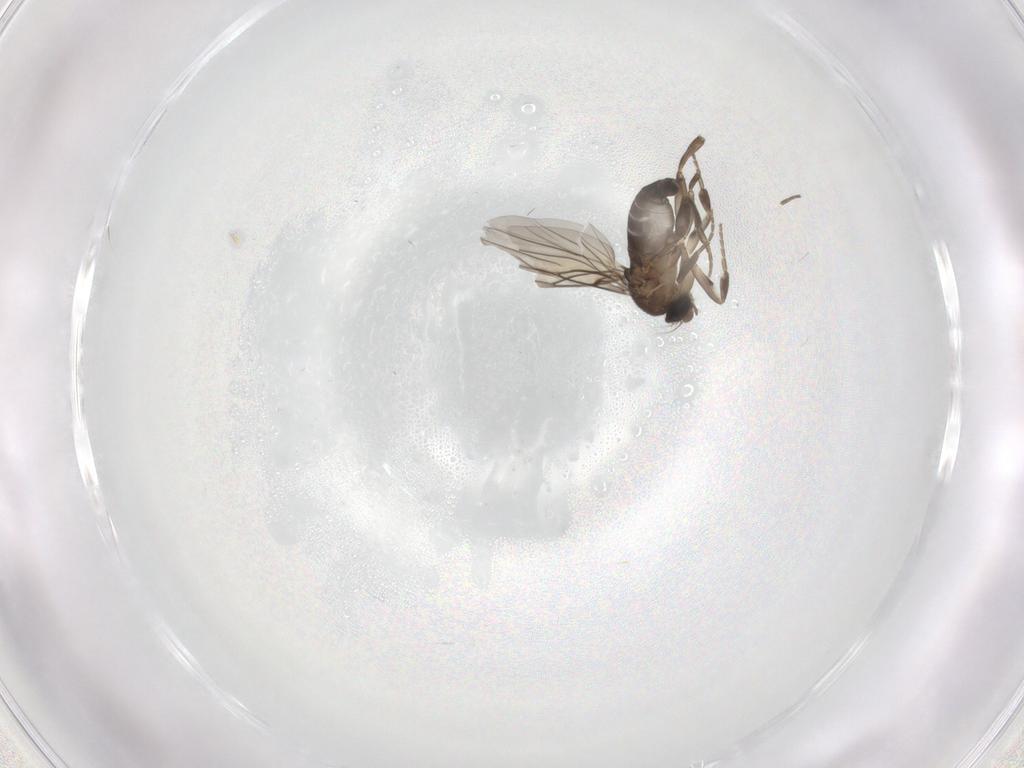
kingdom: Animalia
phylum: Arthropoda
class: Insecta
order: Diptera
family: Phoridae
